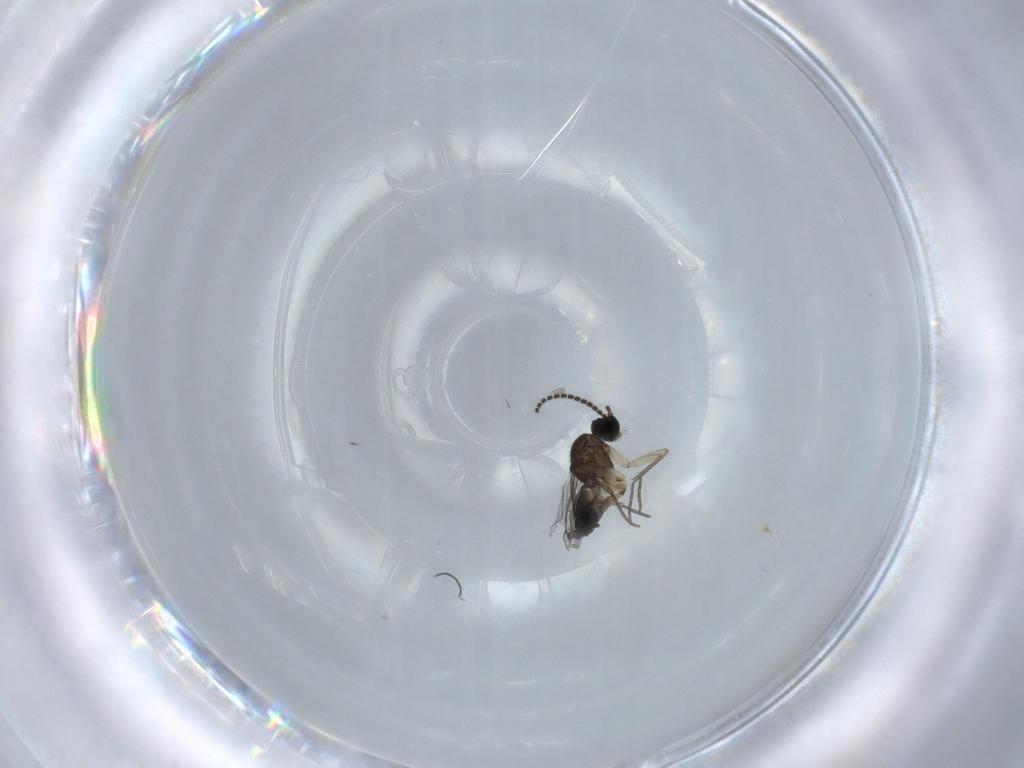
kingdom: Animalia
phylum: Arthropoda
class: Insecta
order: Diptera
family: Sciaridae
